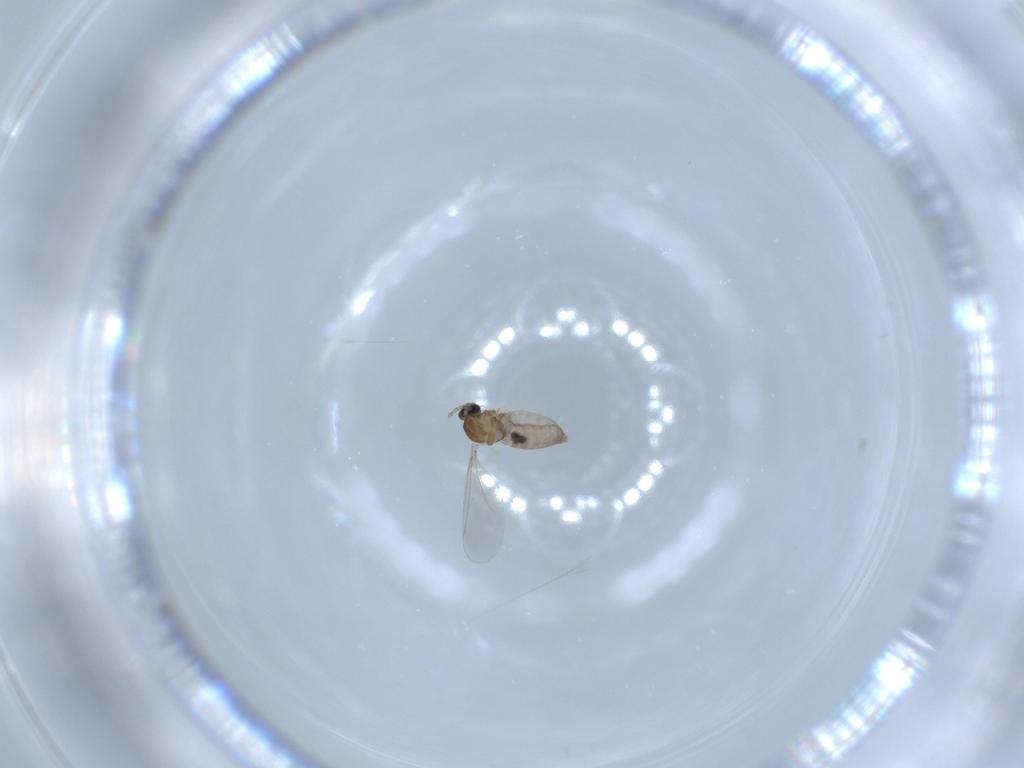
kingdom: Animalia
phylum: Arthropoda
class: Insecta
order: Diptera
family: Cecidomyiidae
